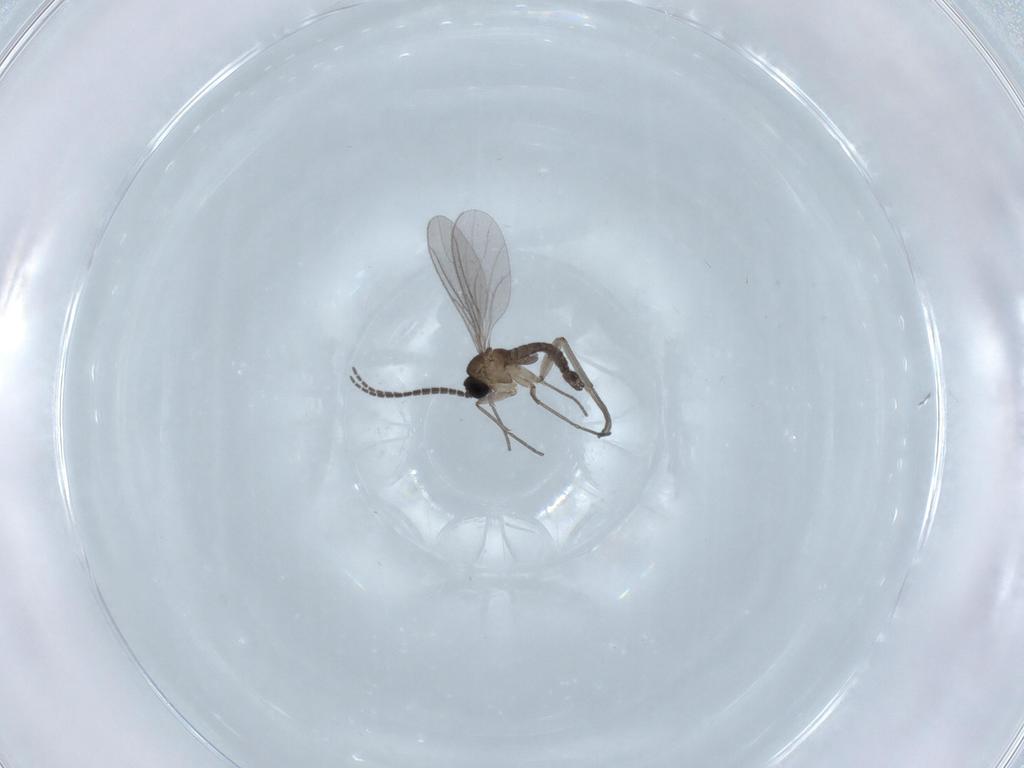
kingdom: Animalia
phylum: Arthropoda
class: Insecta
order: Diptera
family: Sciaridae
